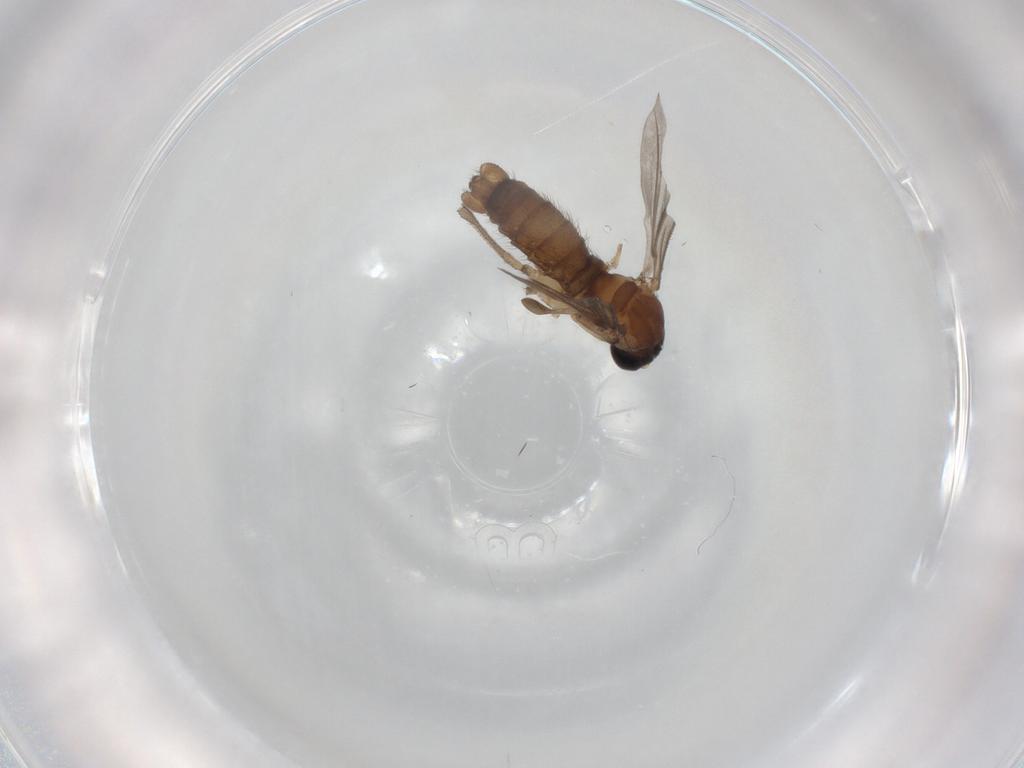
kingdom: Animalia
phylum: Arthropoda
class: Insecta
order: Diptera
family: Sciaridae
